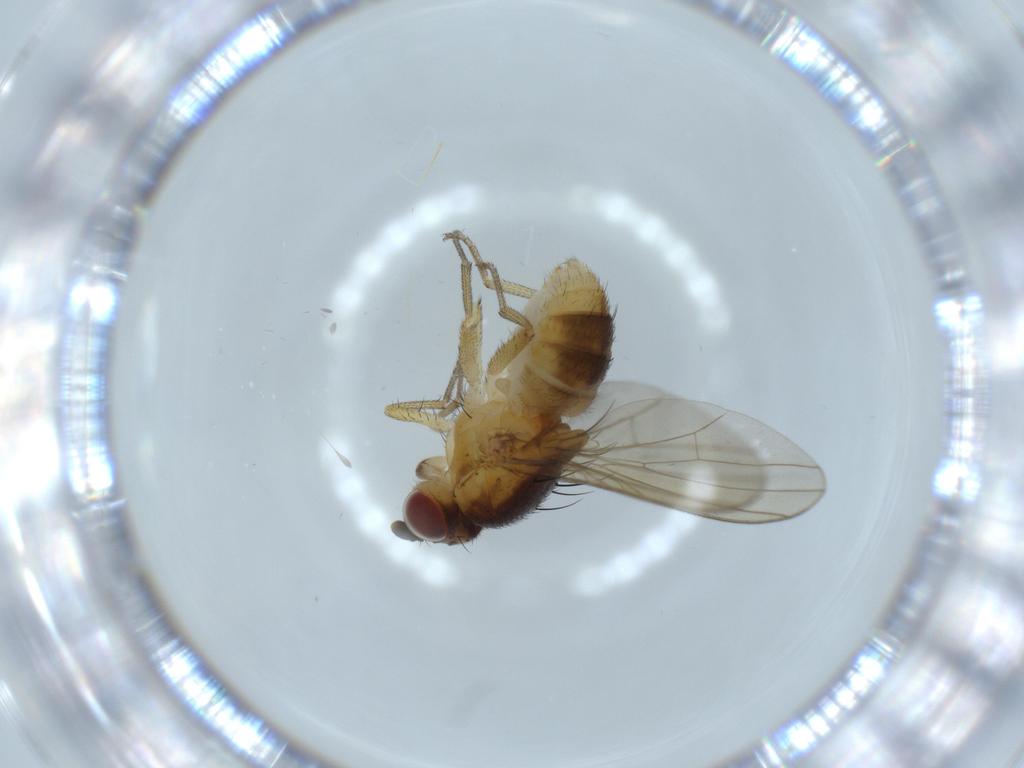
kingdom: Animalia
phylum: Arthropoda
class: Insecta
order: Diptera
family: Lauxaniidae
